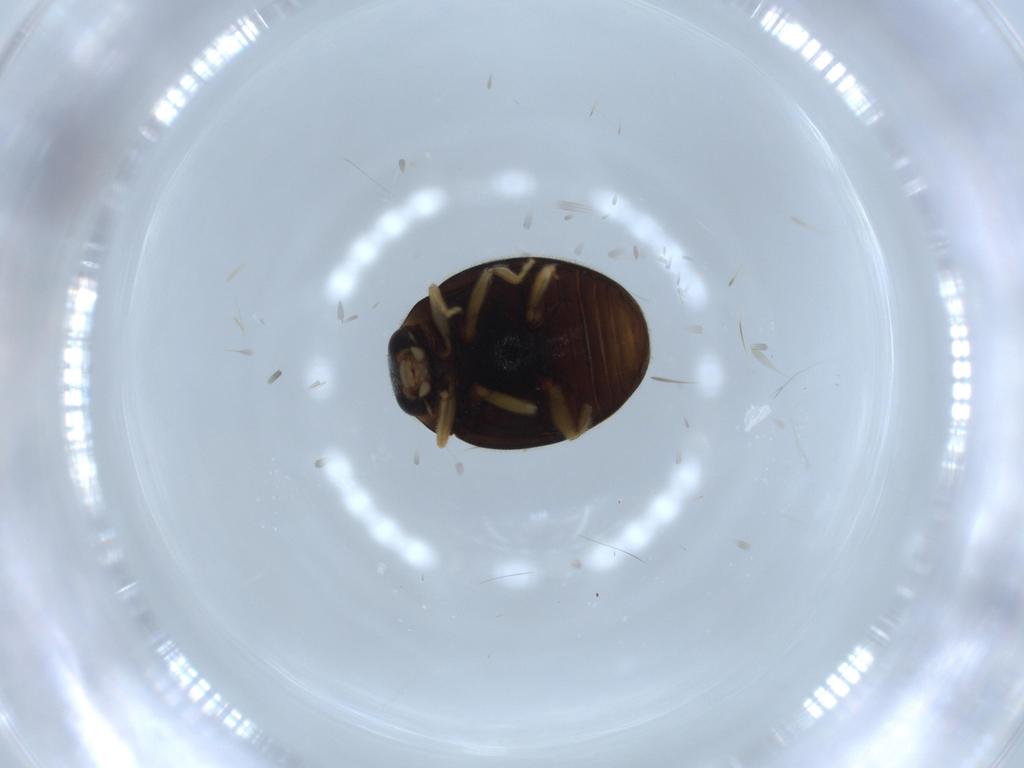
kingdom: Animalia
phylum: Arthropoda
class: Insecta
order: Coleoptera
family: Coccinellidae
